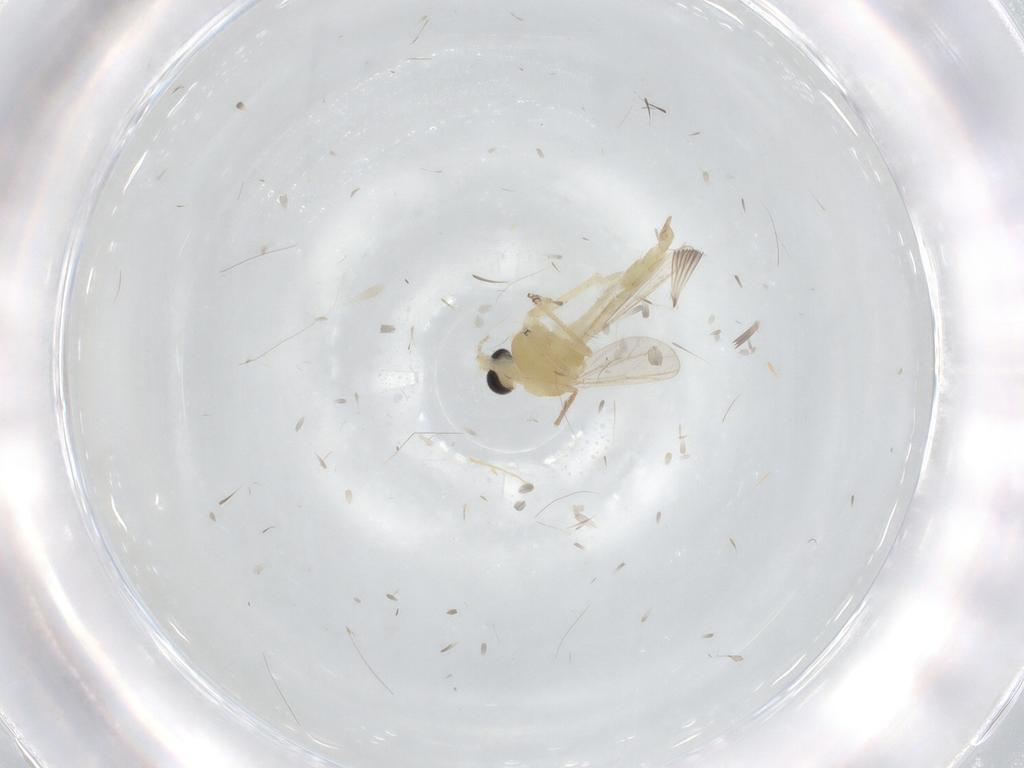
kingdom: Animalia
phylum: Arthropoda
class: Insecta
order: Diptera
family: Chironomidae
